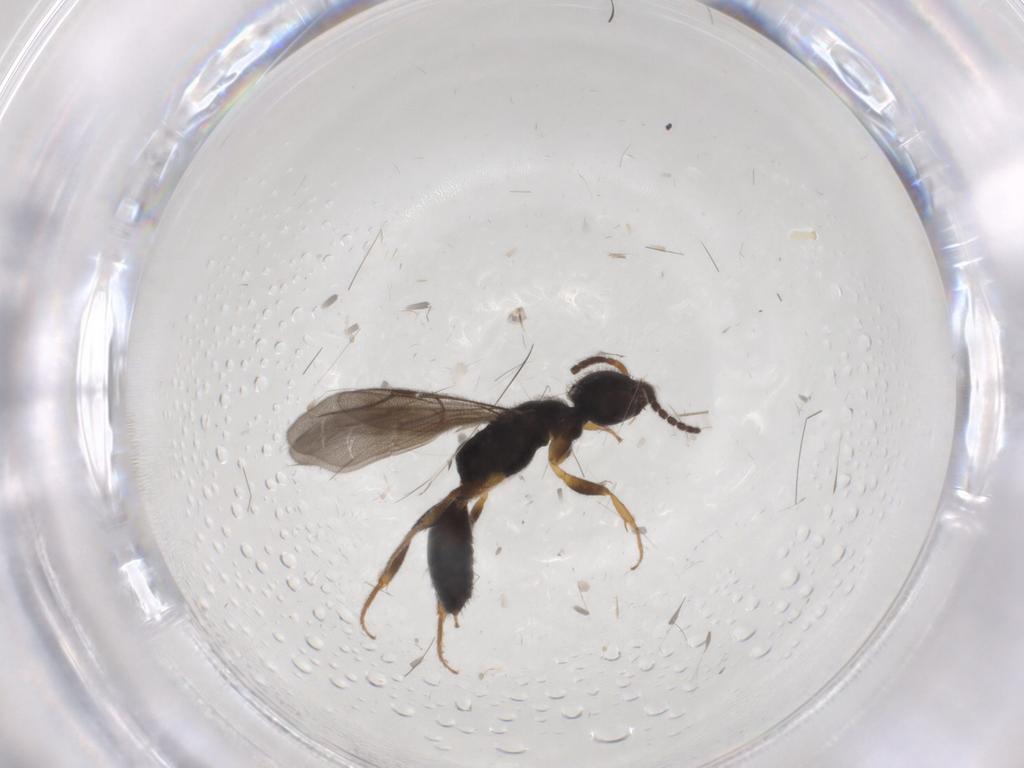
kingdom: Animalia
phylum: Arthropoda
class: Insecta
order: Hymenoptera
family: Bethylidae
